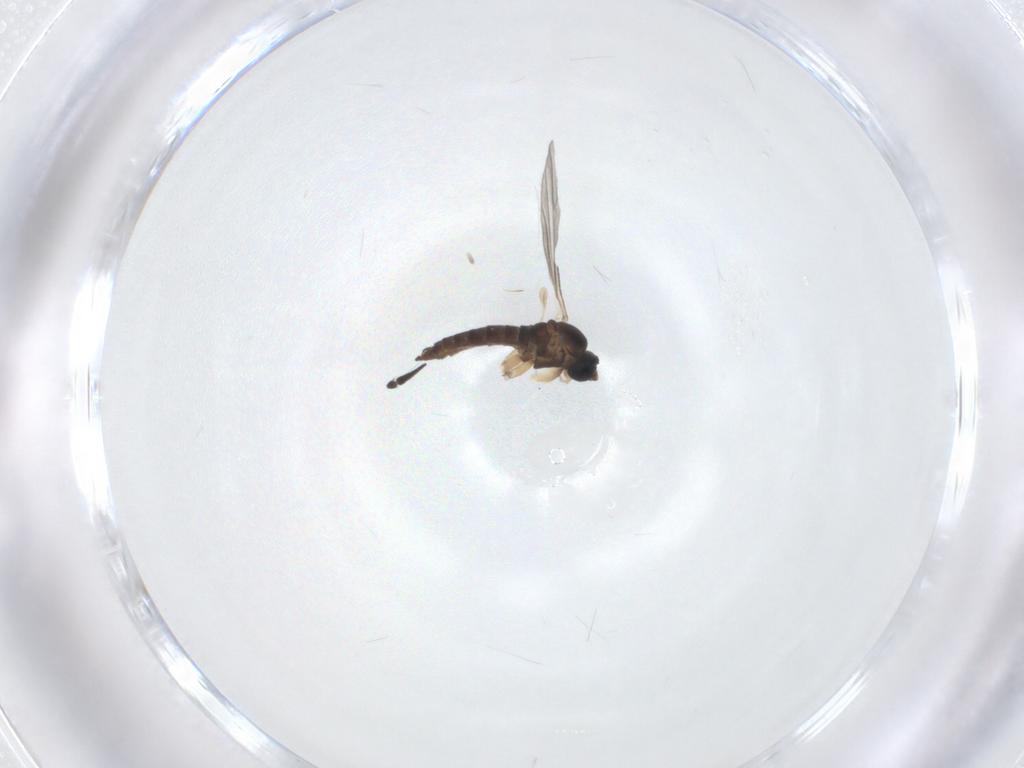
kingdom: Animalia
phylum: Arthropoda
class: Insecta
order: Diptera
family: Empididae
